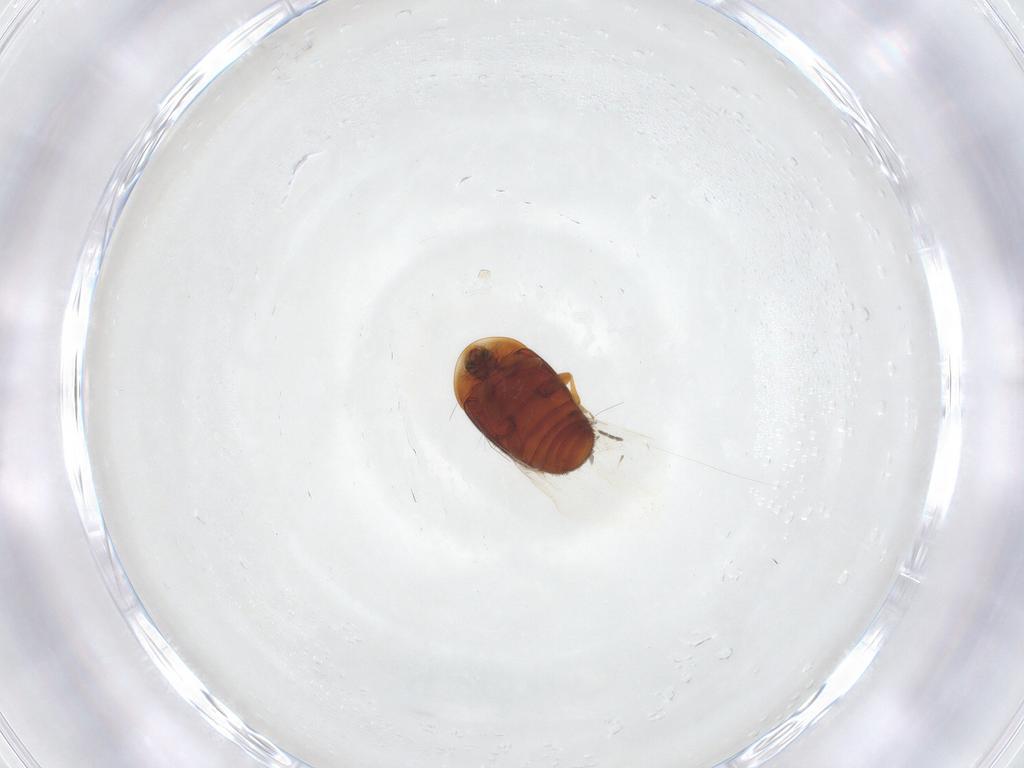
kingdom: Animalia
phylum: Arthropoda
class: Insecta
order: Coleoptera
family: Corylophidae
